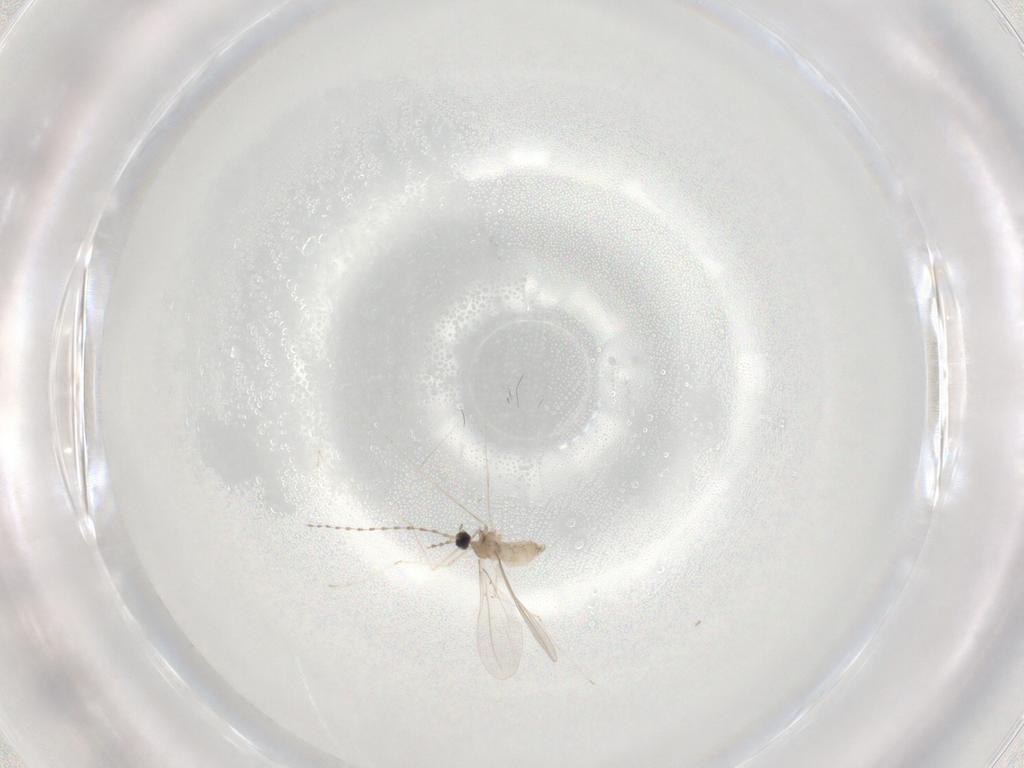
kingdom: Animalia
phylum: Arthropoda
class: Insecta
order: Diptera
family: Cecidomyiidae
